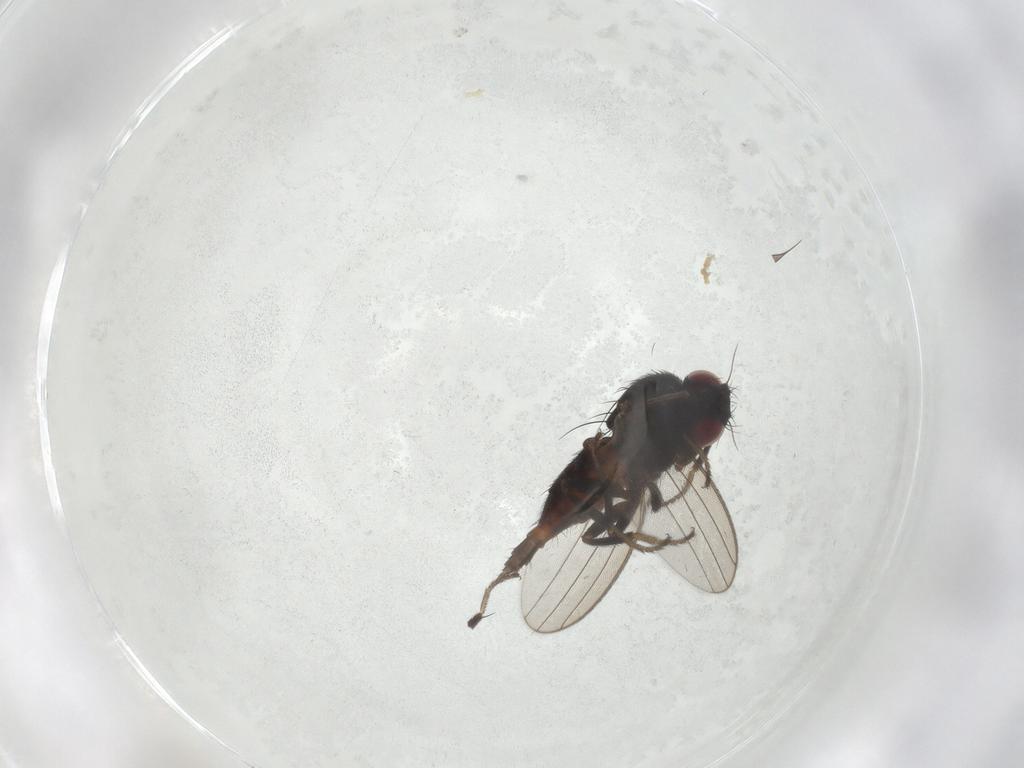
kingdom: Animalia
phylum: Arthropoda
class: Insecta
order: Diptera
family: Milichiidae
